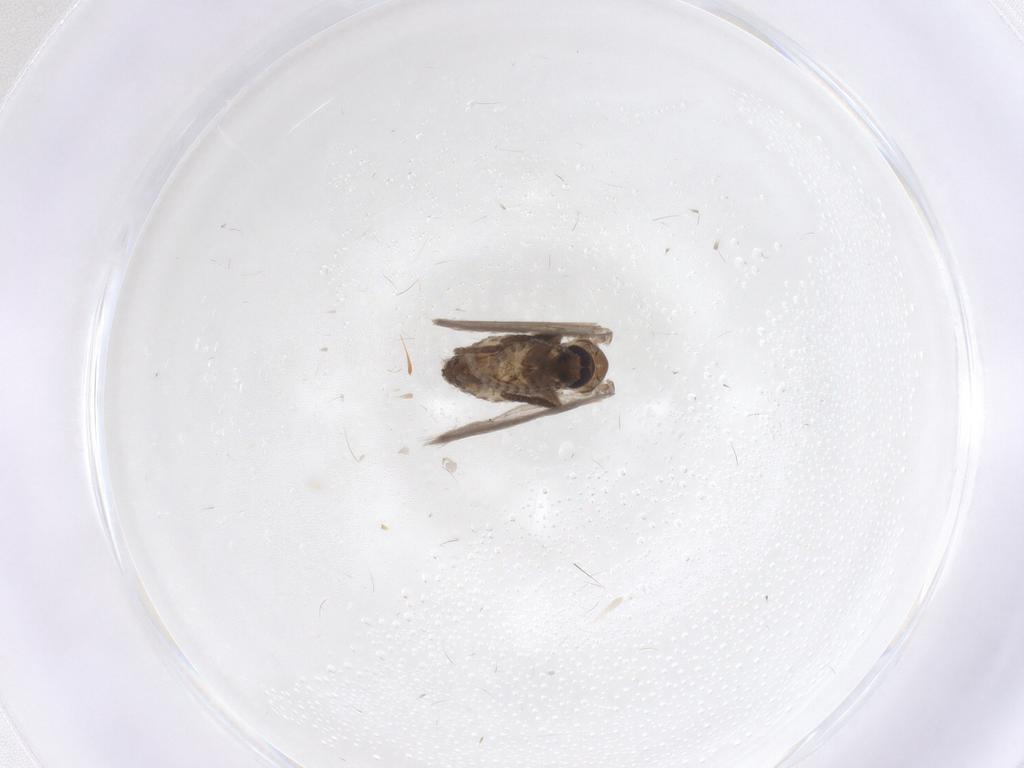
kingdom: Animalia
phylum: Arthropoda
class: Insecta
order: Diptera
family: Psychodidae
